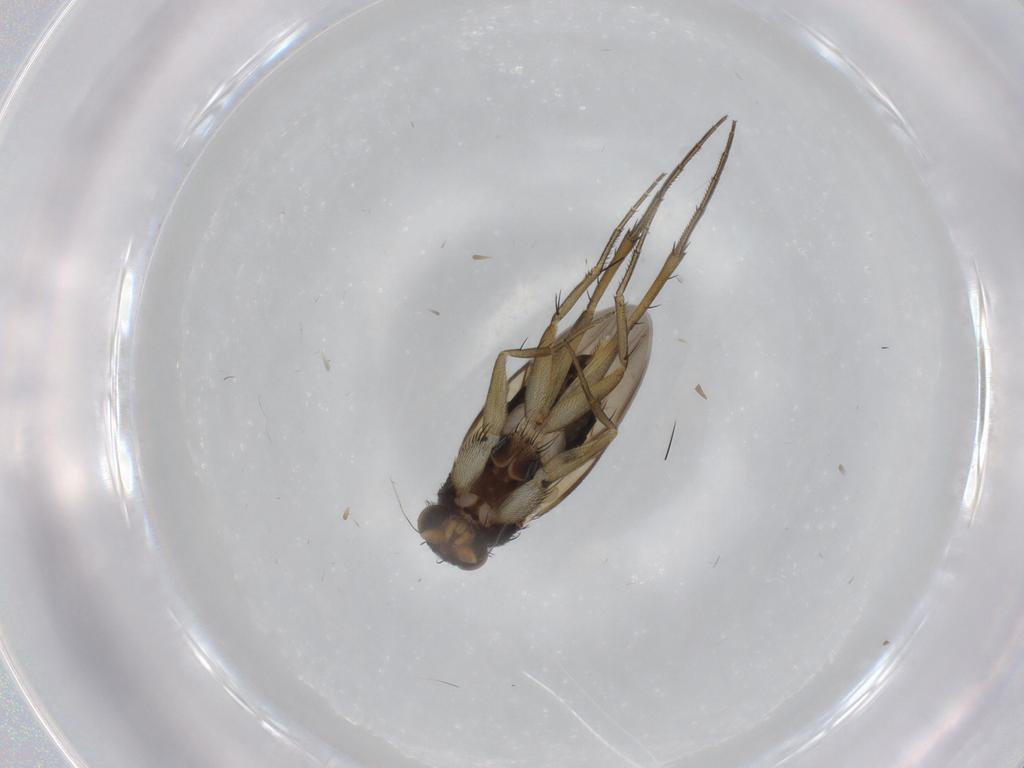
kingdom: Animalia
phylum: Arthropoda
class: Insecta
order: Diptera
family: Phoridae
